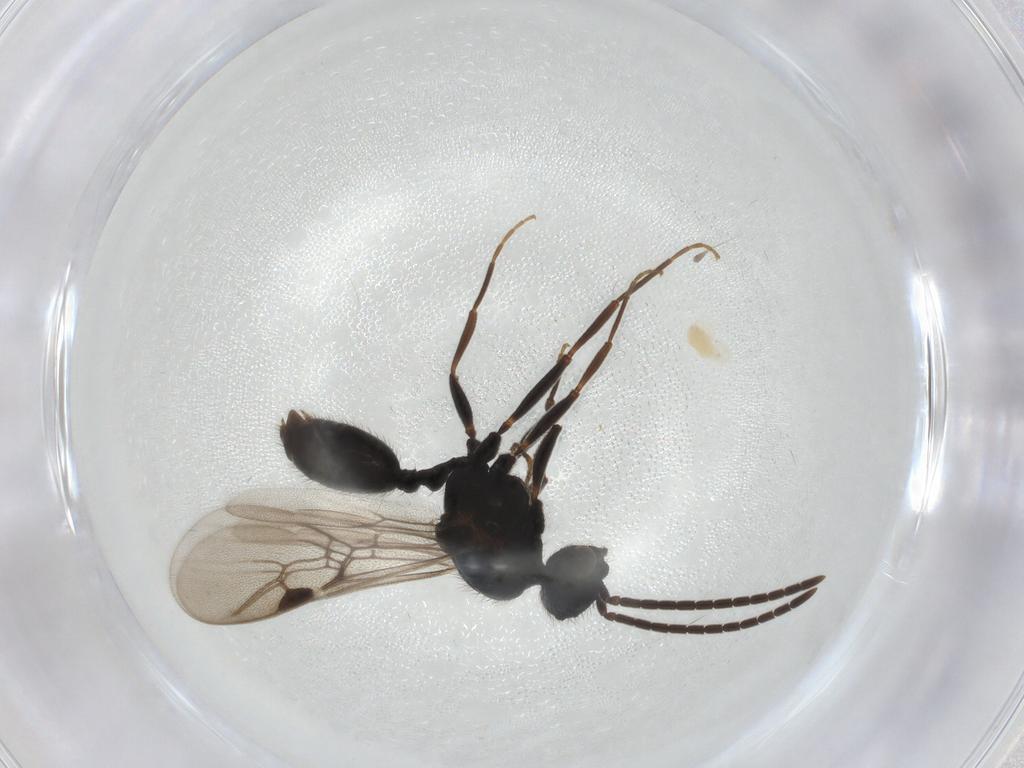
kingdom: Animalia
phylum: Arthropoda
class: Insecta
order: Hymenoptera
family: Formicidae
